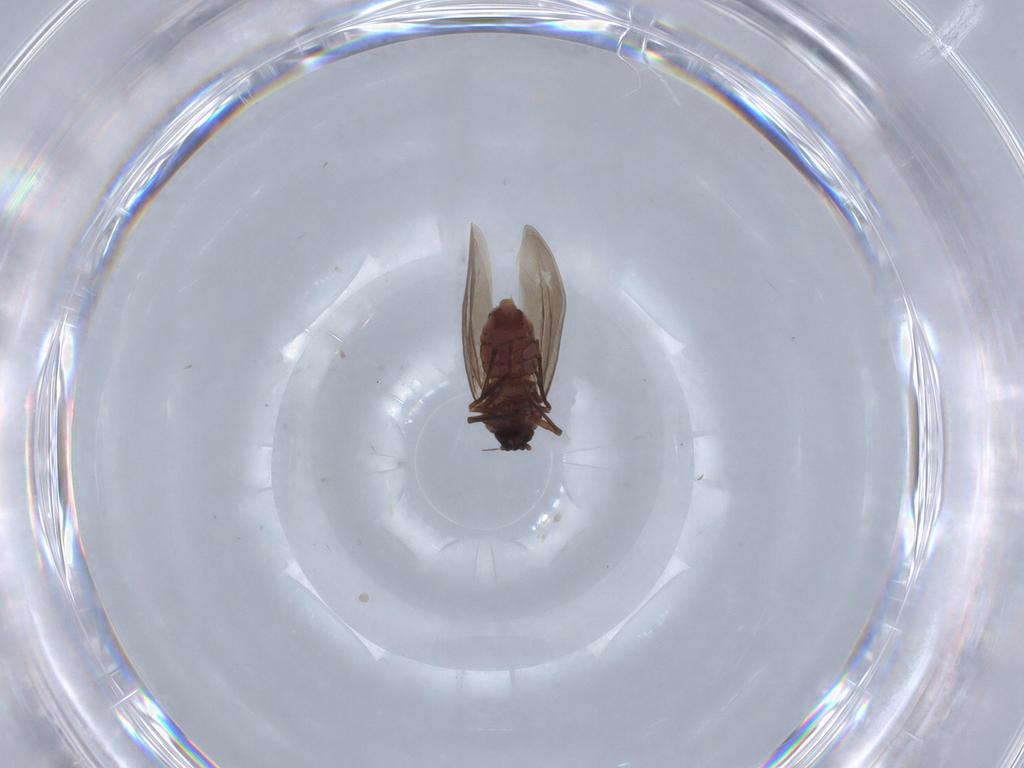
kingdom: Animalia
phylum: Arthropoda
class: Insecta
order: Hemiptera
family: Aleyrodidae
